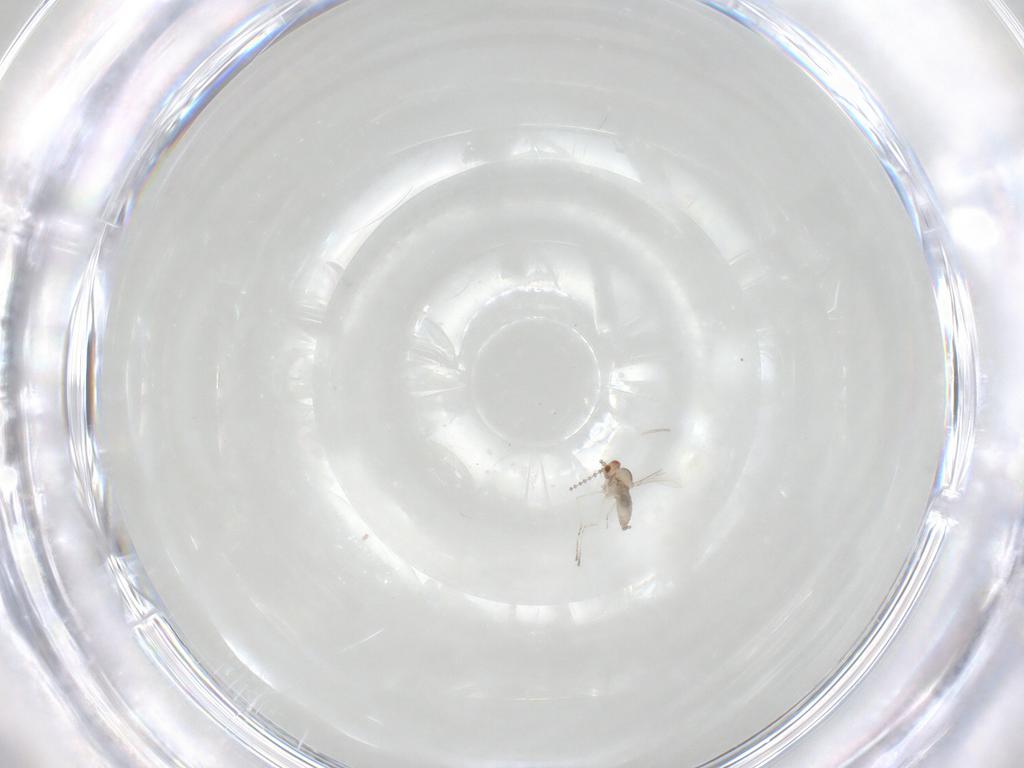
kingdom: Animalia
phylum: Arthropoda
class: Insecta
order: Diptera
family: Cecidomyiidae
